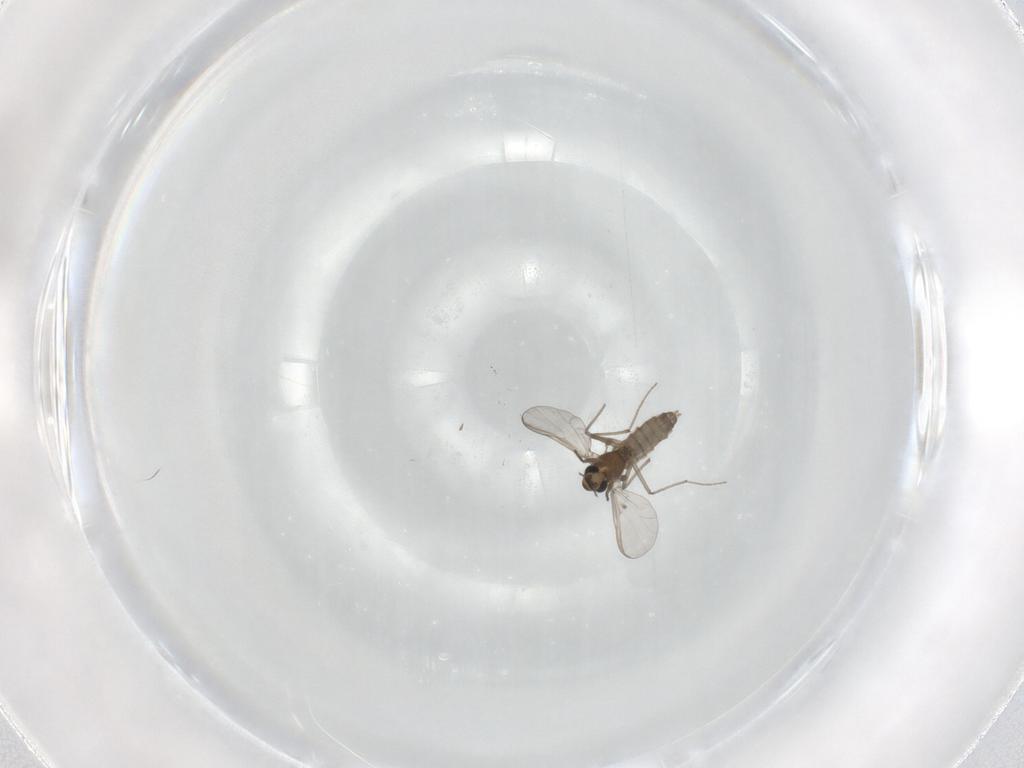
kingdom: Animalia
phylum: Arthropoda
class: Insecta
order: Diptera
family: Chironomidae
